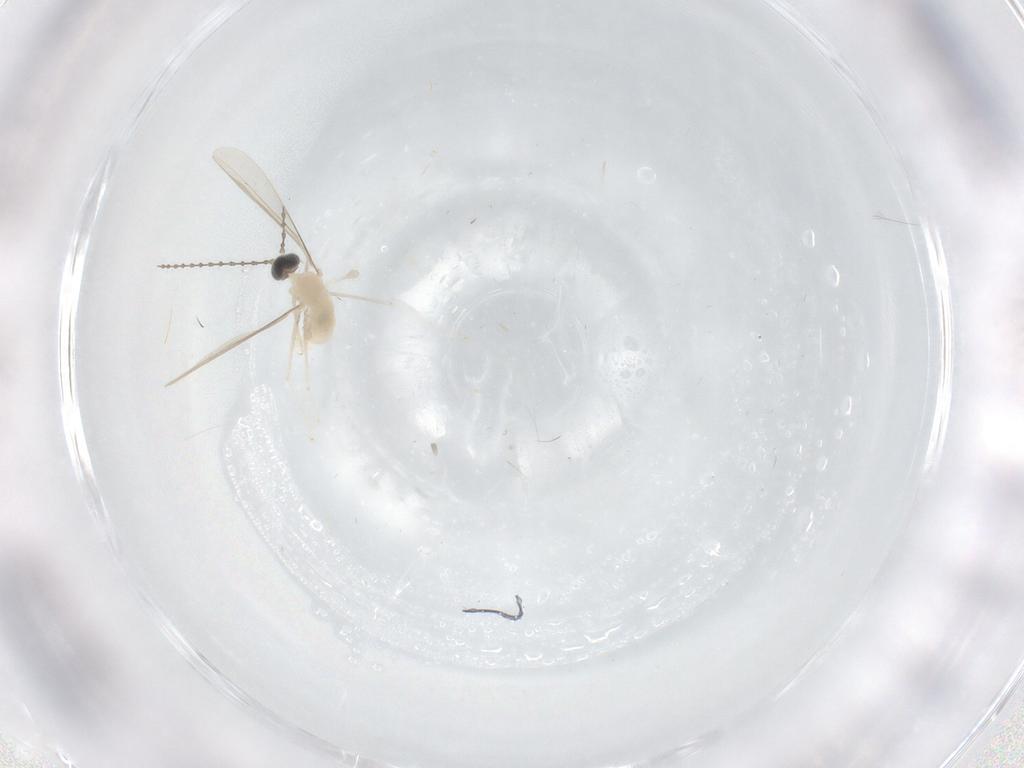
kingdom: Animalia
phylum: Arthropoda
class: Insecta
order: Diptera
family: Cecidomyiidae
